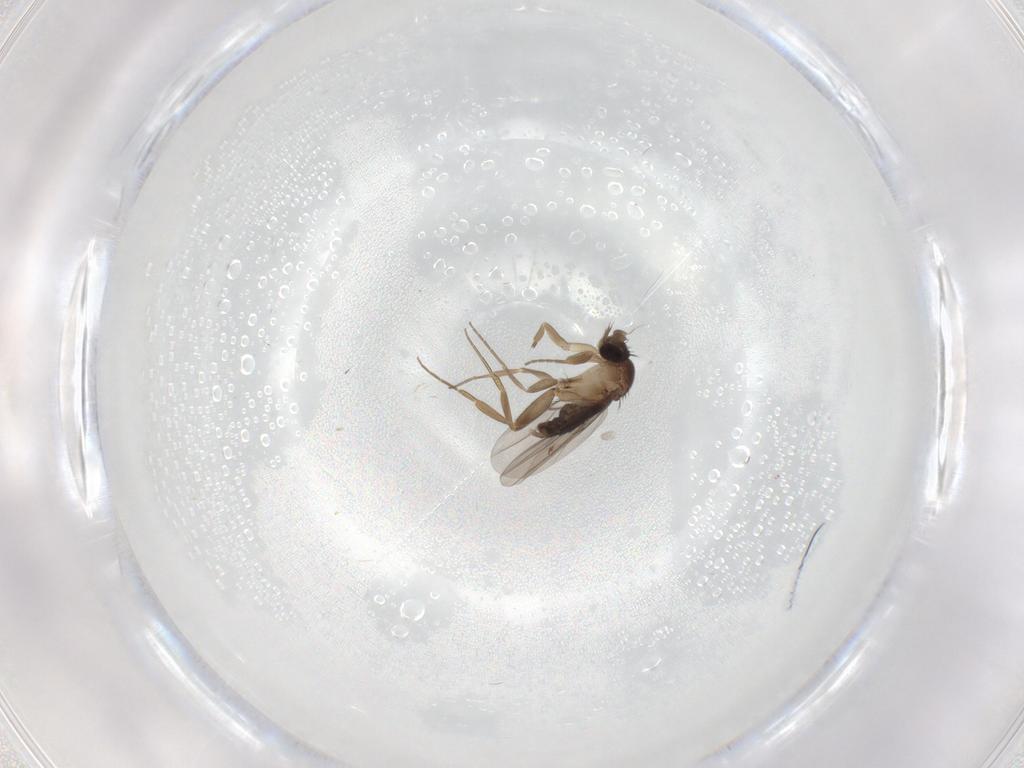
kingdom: Animalia
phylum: Arthropoda
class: Insecta
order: Diptera
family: Phoridae
